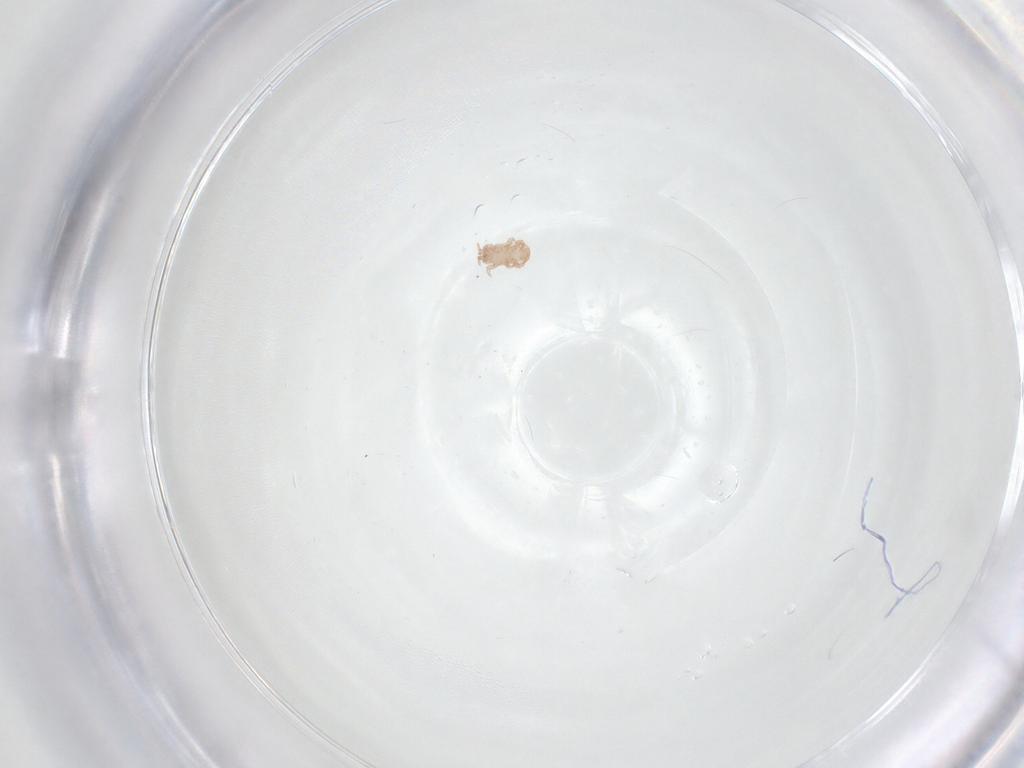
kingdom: Animalia
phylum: Arthropoda
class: Arachnida
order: Mesostigmata
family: Digamasellidae
